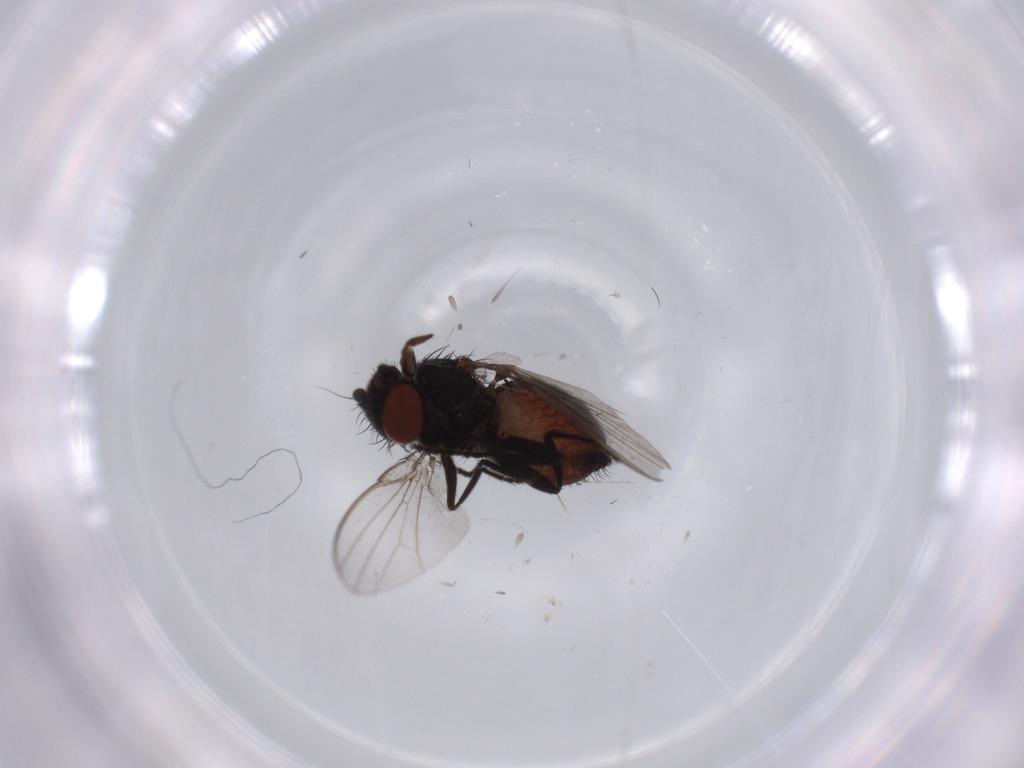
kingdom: Animalia
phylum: Arthropoda
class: Insecta
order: Diptera
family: Milichiidae
